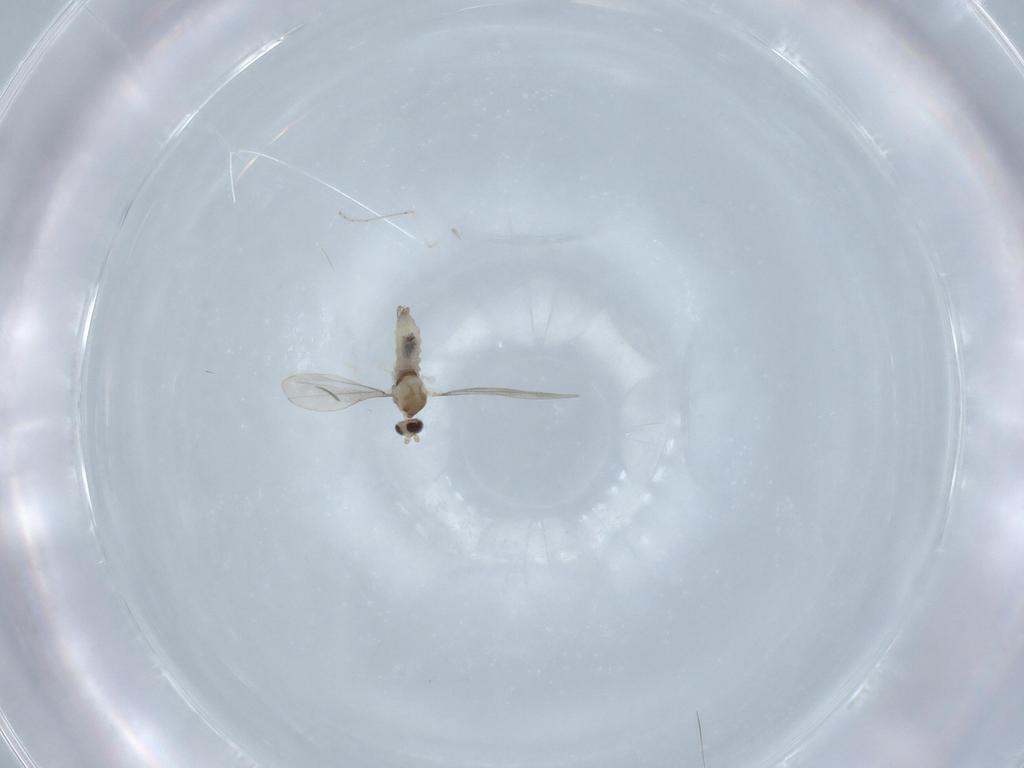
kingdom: Animalia
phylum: Arthropoda
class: Insecta
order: Diptera
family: Cecidomyiidae
